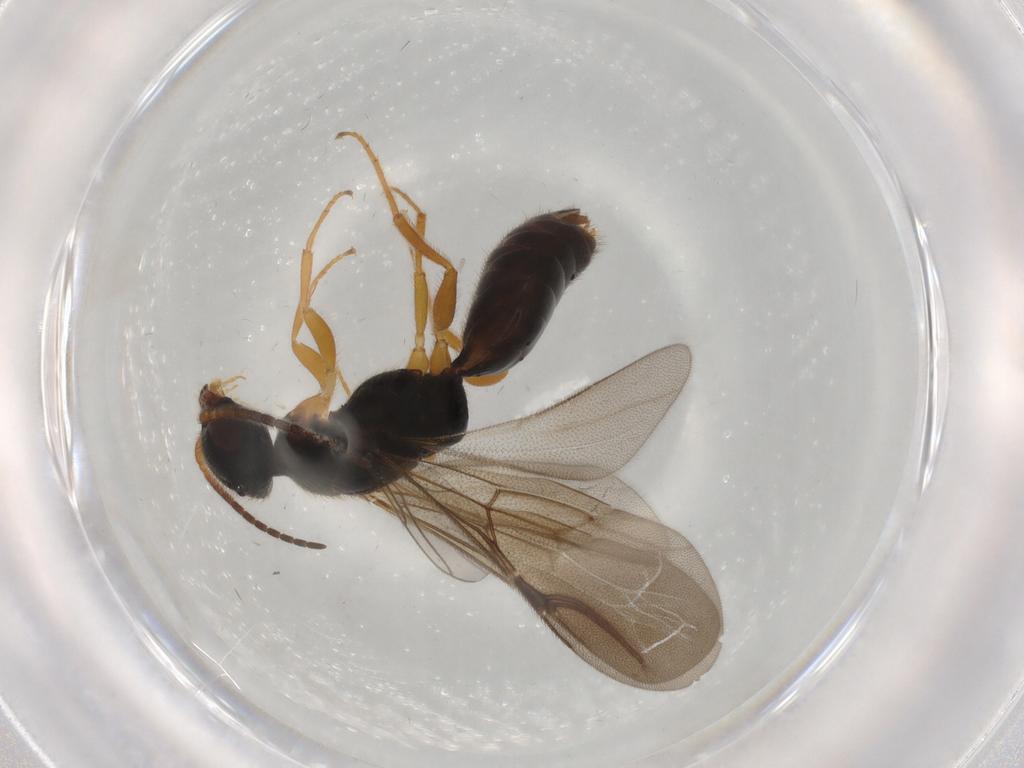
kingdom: Animalia
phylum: Arthropoda
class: Insecta
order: Hymenoptera
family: Bethylidae
